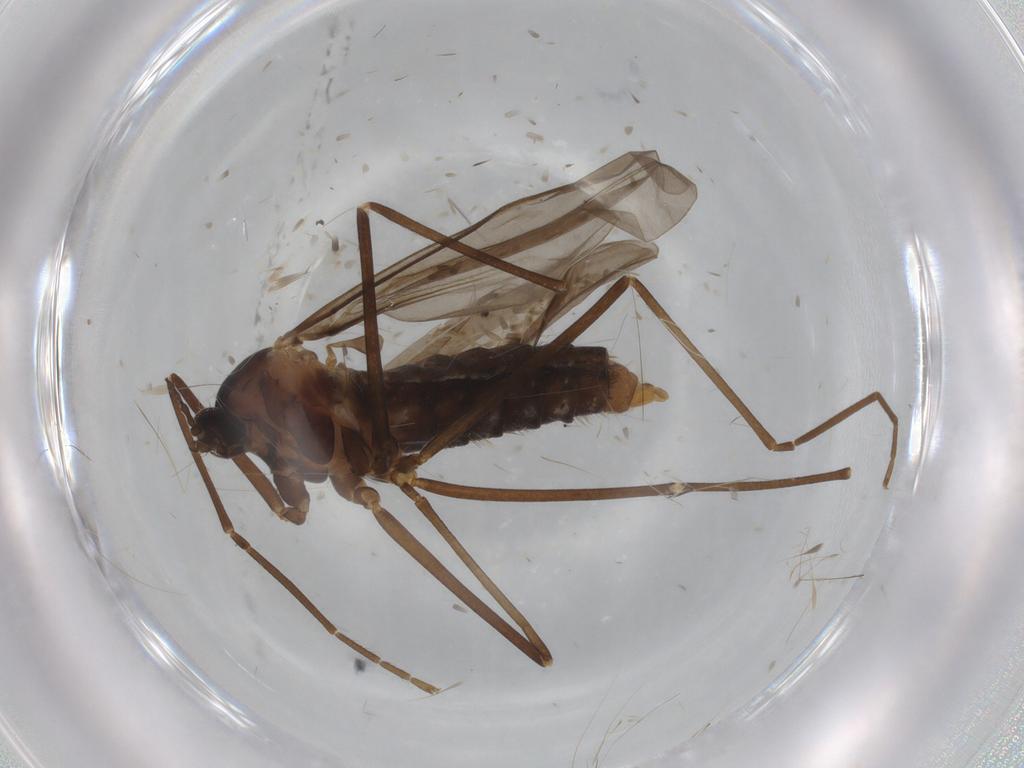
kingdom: Animalia
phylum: Arthropoda
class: Insecta
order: Diptera
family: Cecidomyiidae
